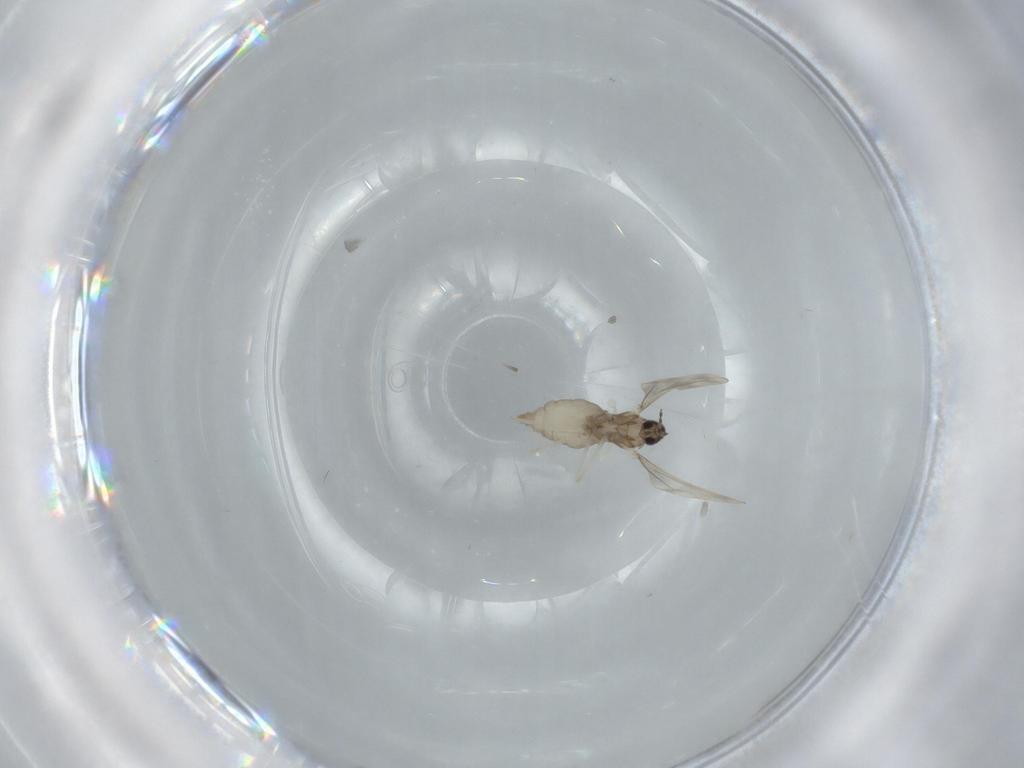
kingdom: Animalia
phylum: Arthropoda
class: Insecta
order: Diptera
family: Cecidomyiidae
